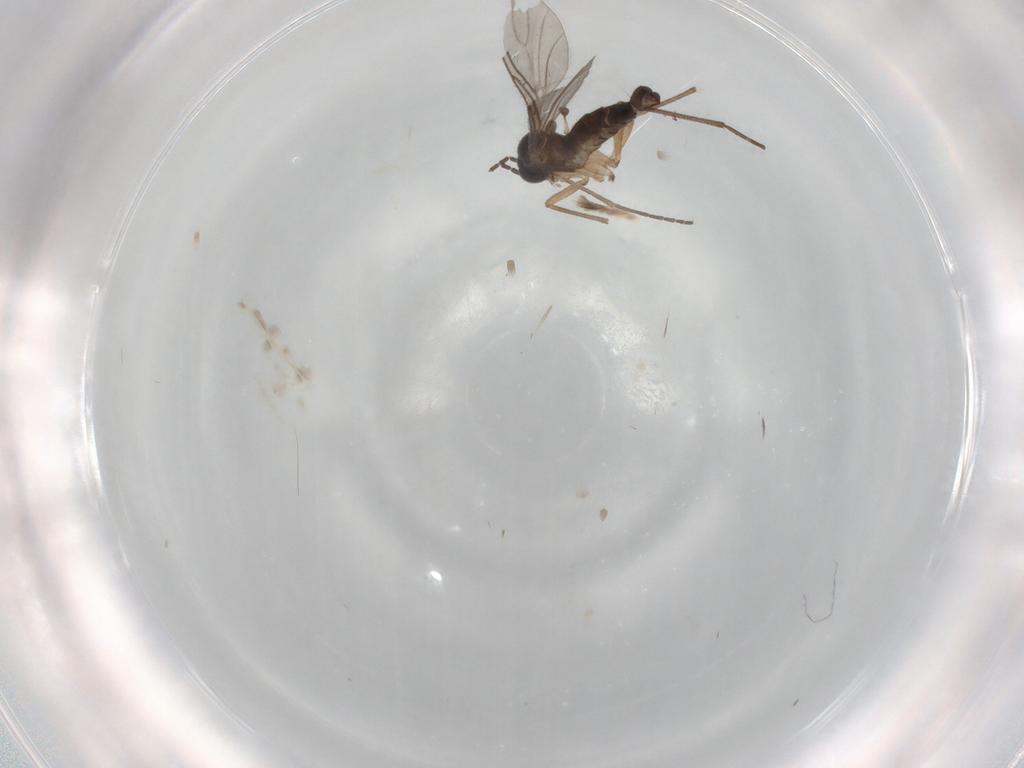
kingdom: Animalia
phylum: Arthropoda
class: Insecta
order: Diptera
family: Sciaridae
